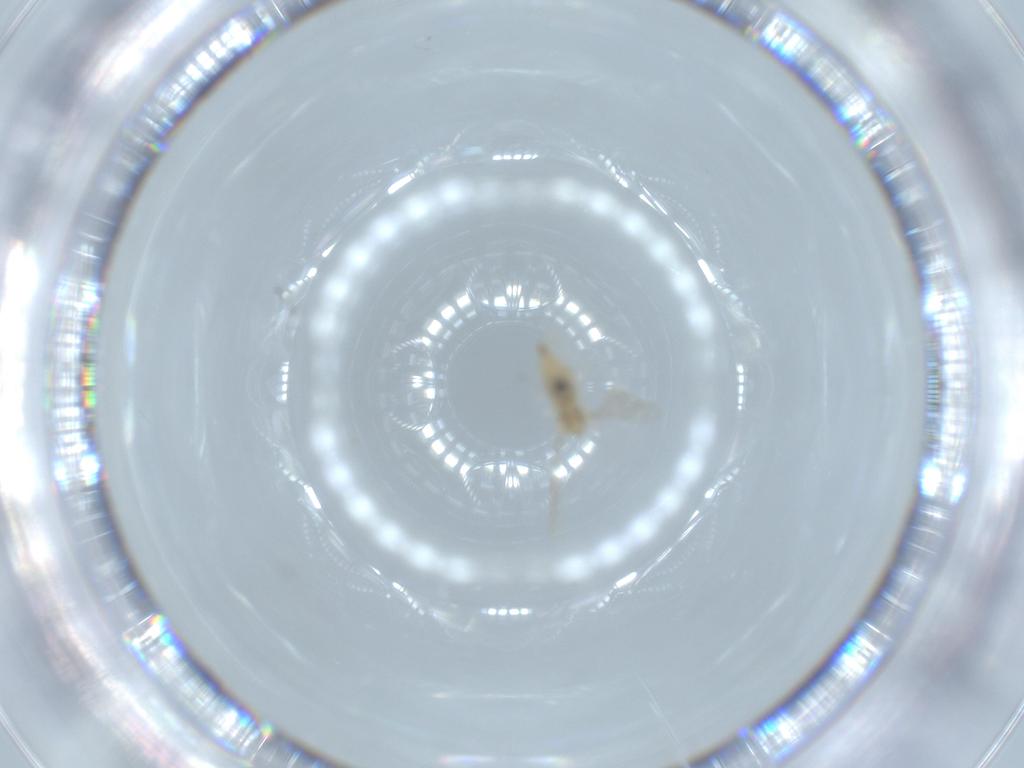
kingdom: Animalia
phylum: Arthropoda
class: Insecta
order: Diptera
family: Cecidomyiidae
